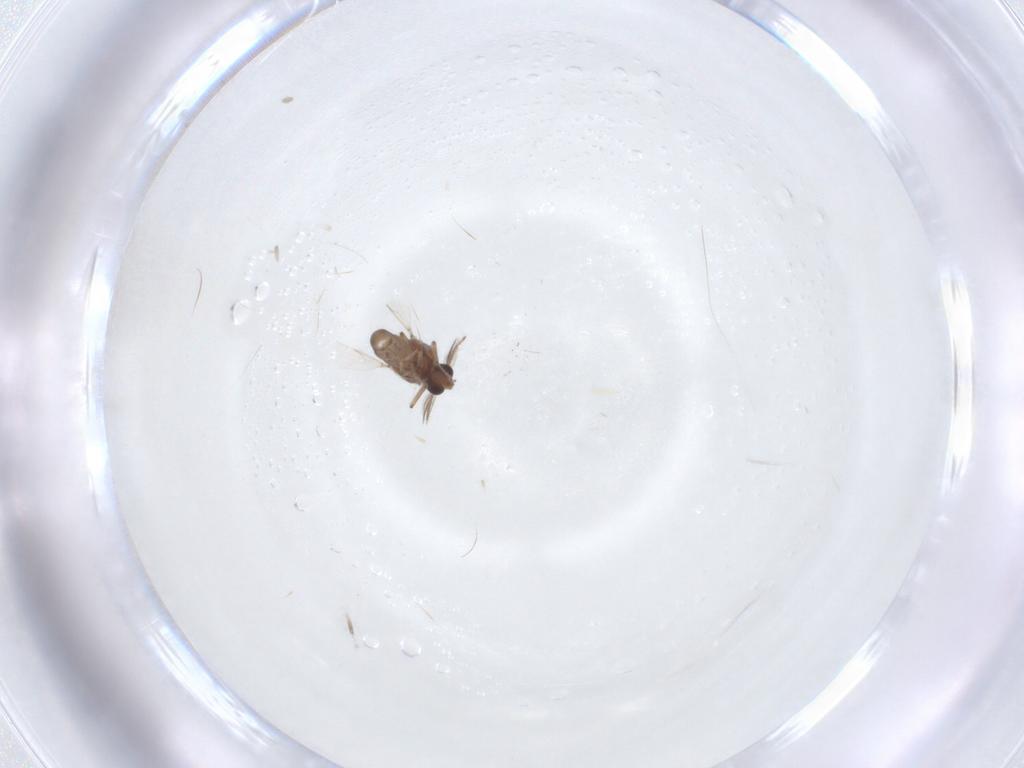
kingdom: Animalia
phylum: Arthropoda
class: Insecta
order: Diptera
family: Ceratopogonidae
